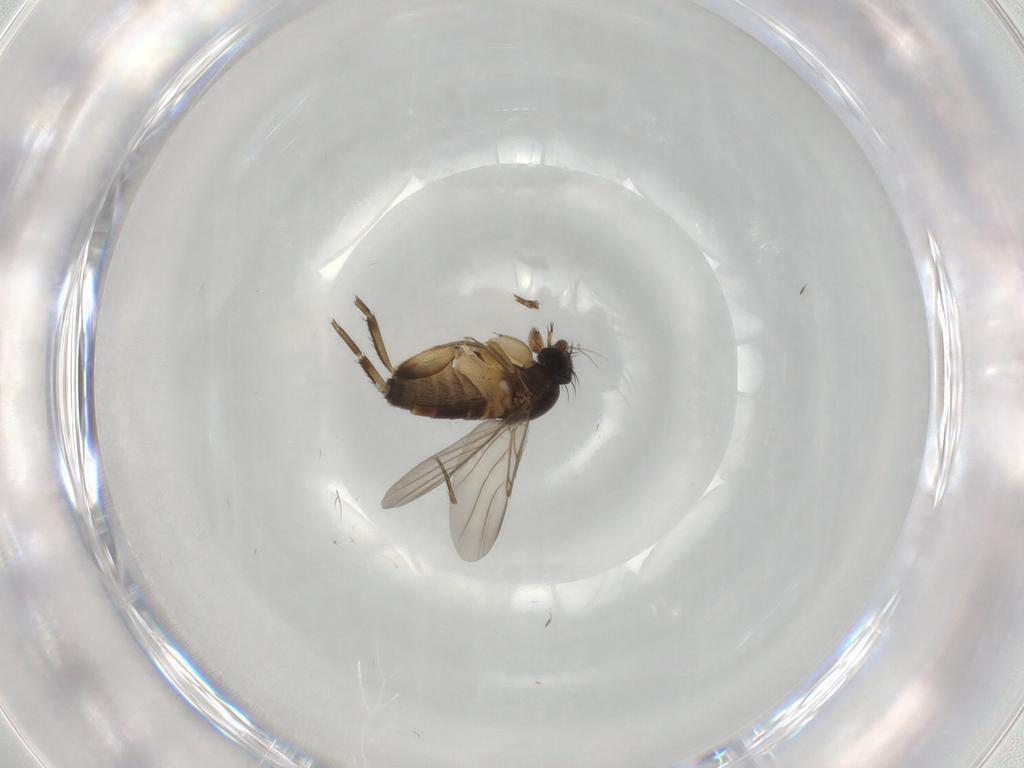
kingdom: Animalia
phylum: Arthropoda
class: Insecta
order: Diptera
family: Phoridae
